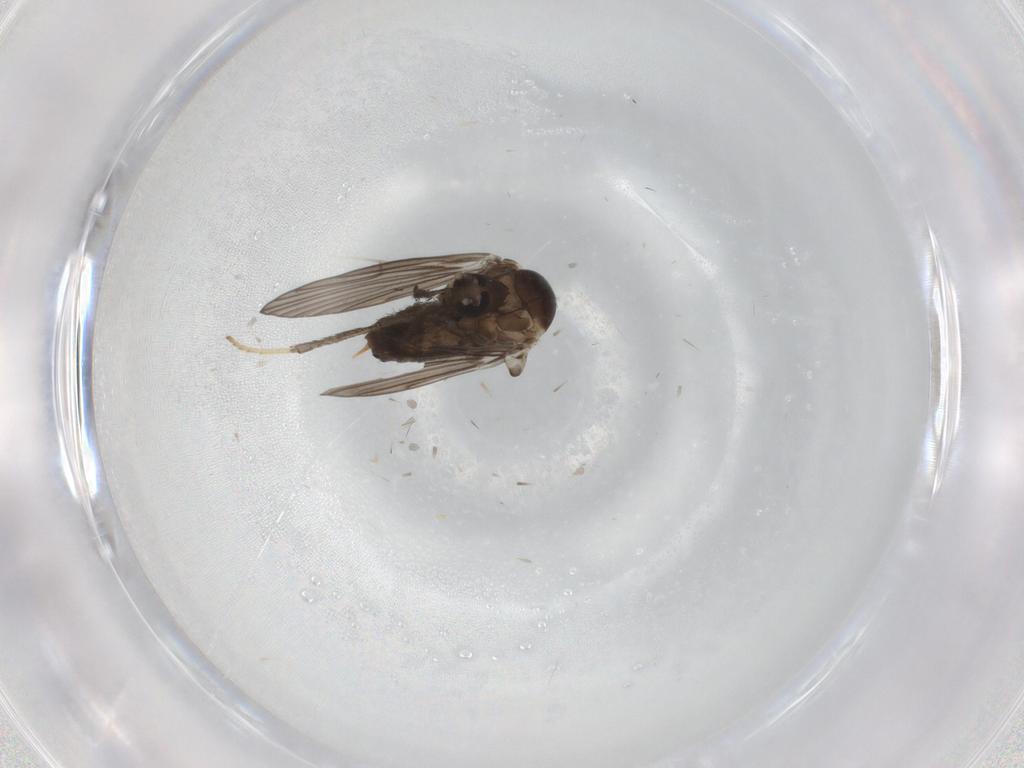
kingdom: Animalia
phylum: Arthropoda
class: Insecta
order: Diptera
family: Psychodidae
